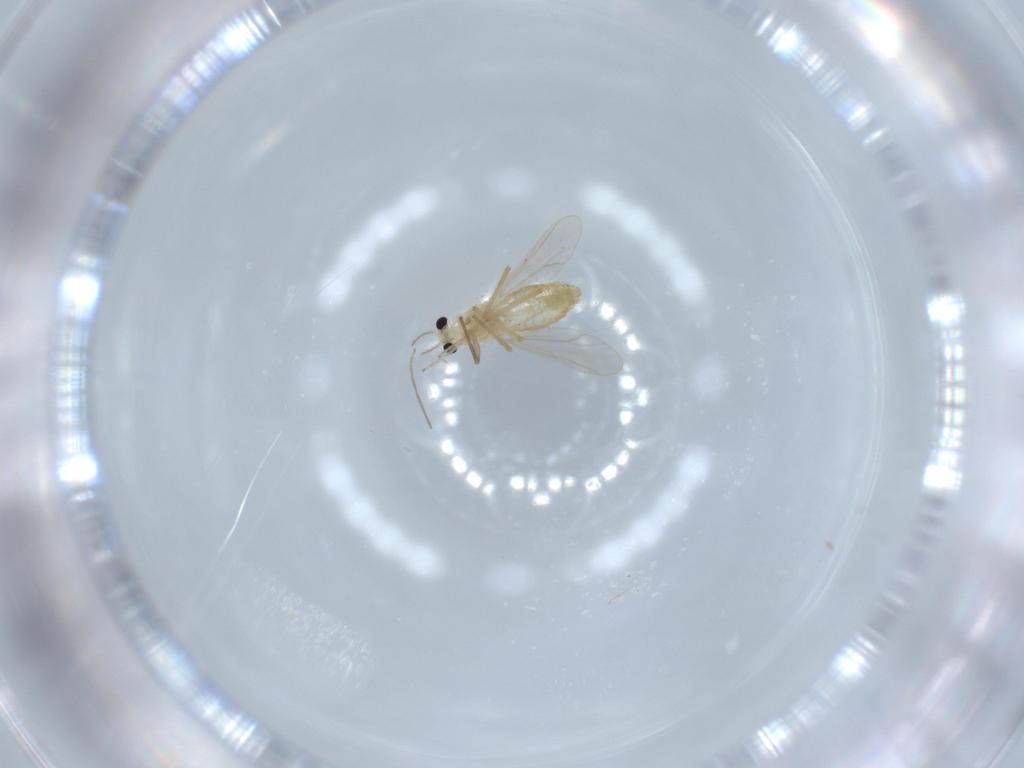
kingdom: Animalia
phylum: Arthropoda
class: Insecta
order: Diptera
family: Chironomidae
